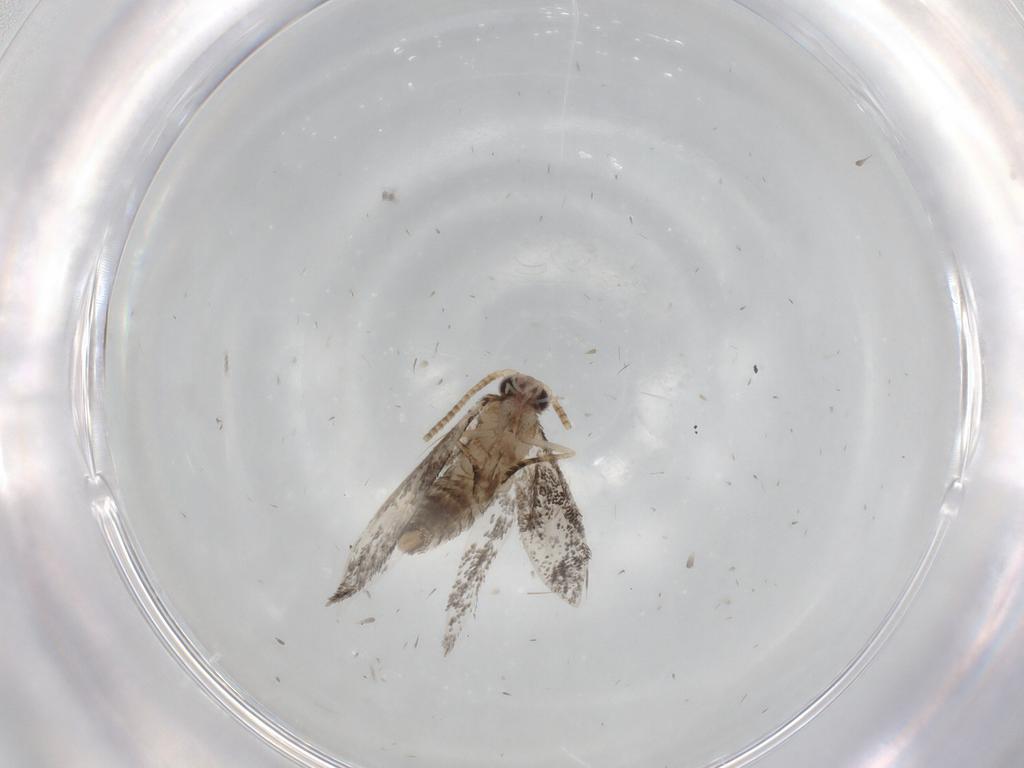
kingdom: Animalia
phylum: Arthropoda
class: Insecta
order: Lepidoptera
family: Tineidae
